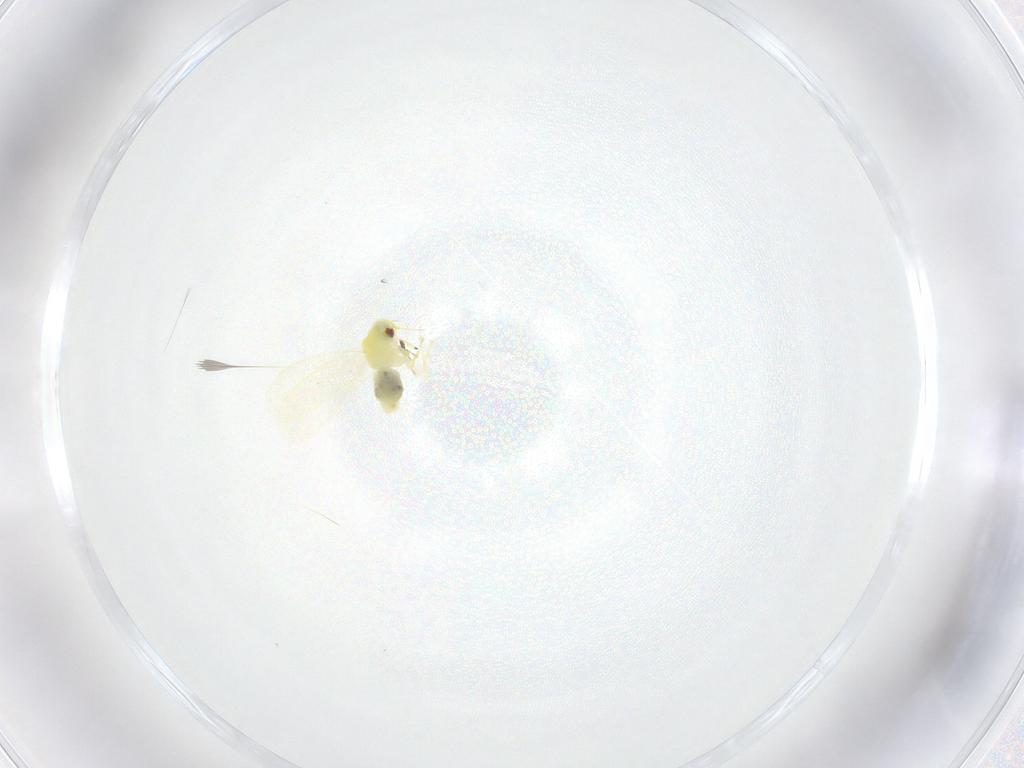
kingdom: Animalia
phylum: Arthropoda
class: Insecta
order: Hemiptera
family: Aleyrodidae
